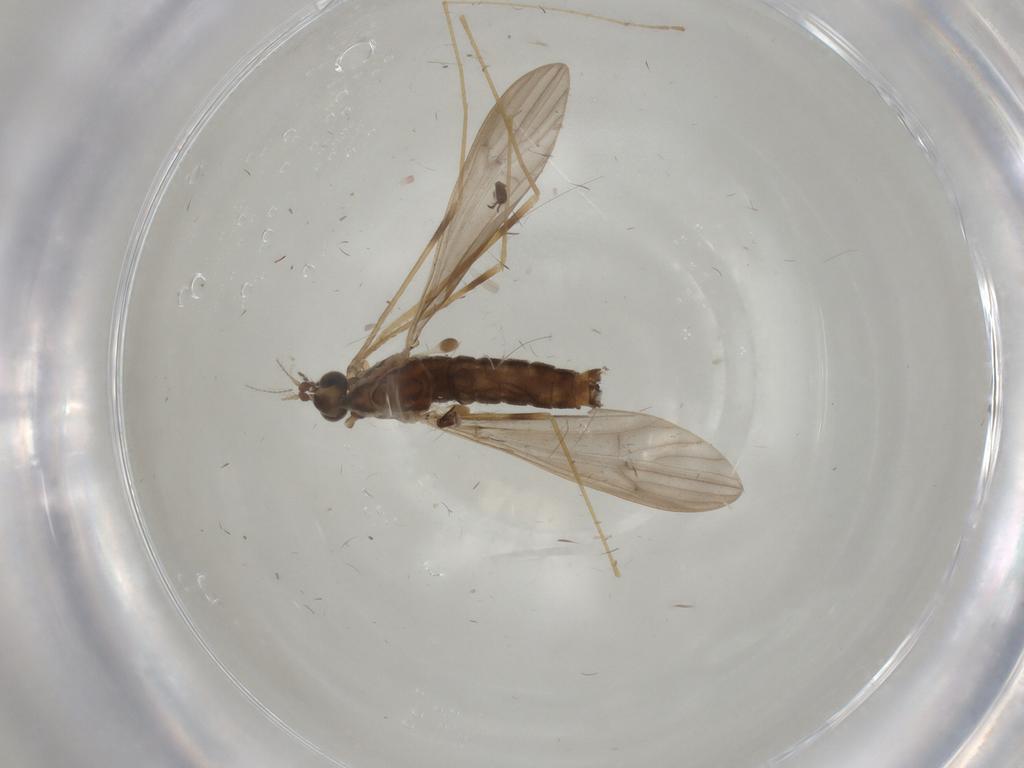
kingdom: Animalia
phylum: Arthropoda
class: Insecta
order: Diptera
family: Limoniidae
